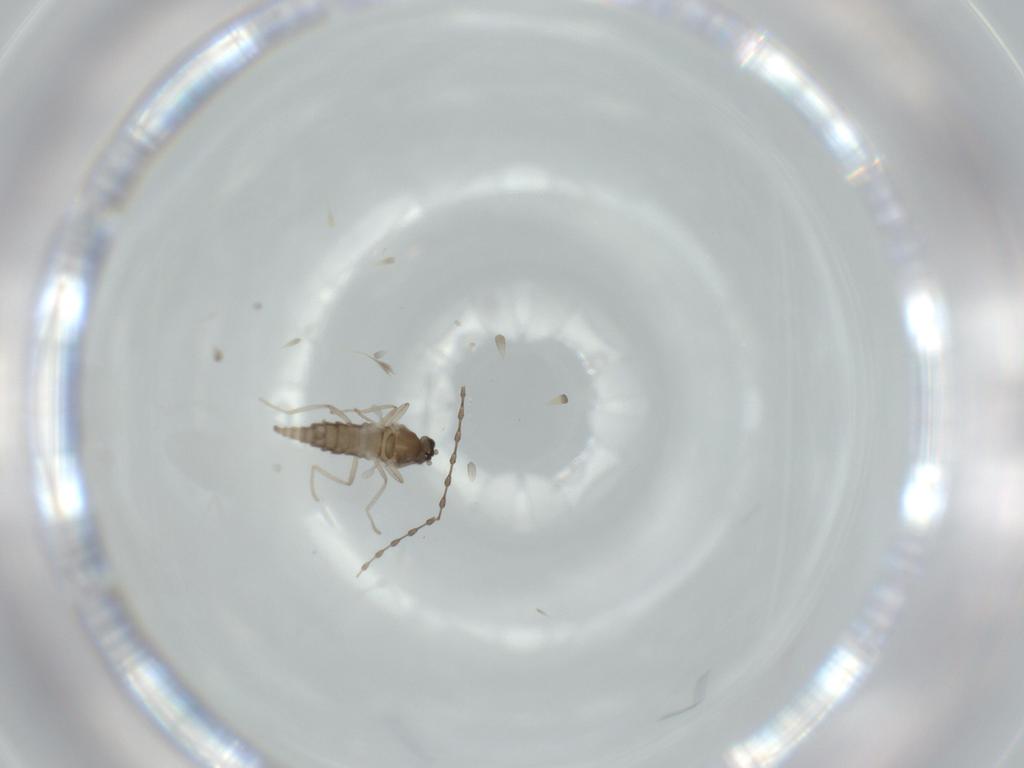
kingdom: Animalia
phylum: Arthropoda
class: Insecta
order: Diptera
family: Cecidomyiidae
